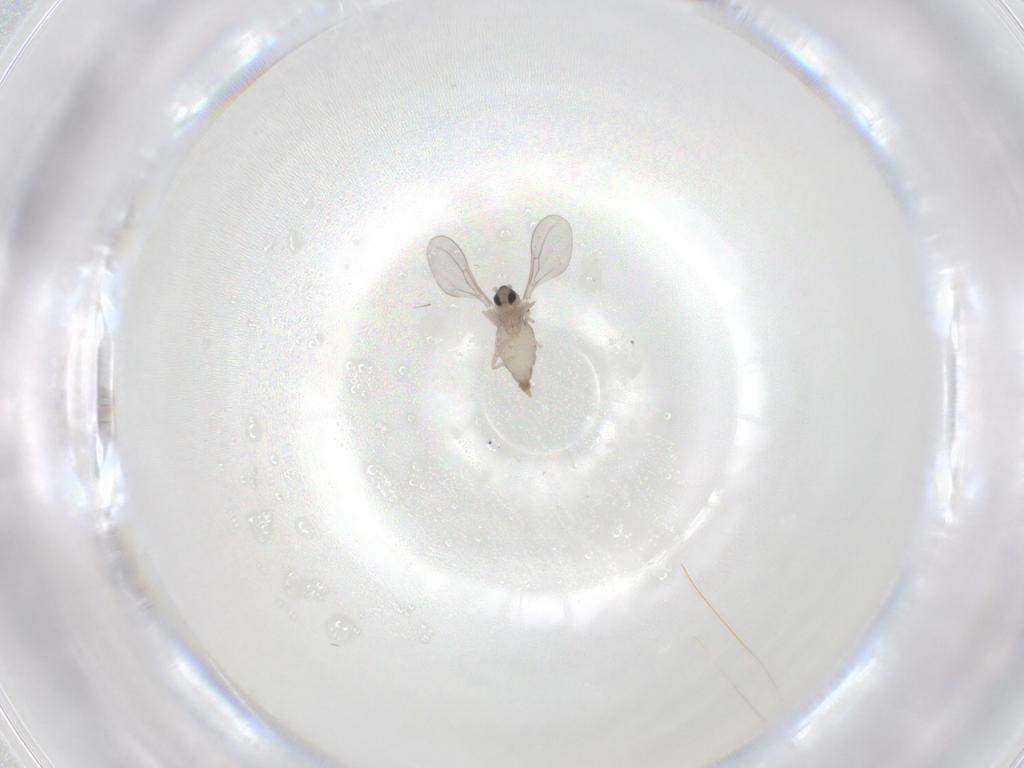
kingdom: Animalia
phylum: Arthropoda
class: Insecta
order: Diptera
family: Cecidomyiidae
